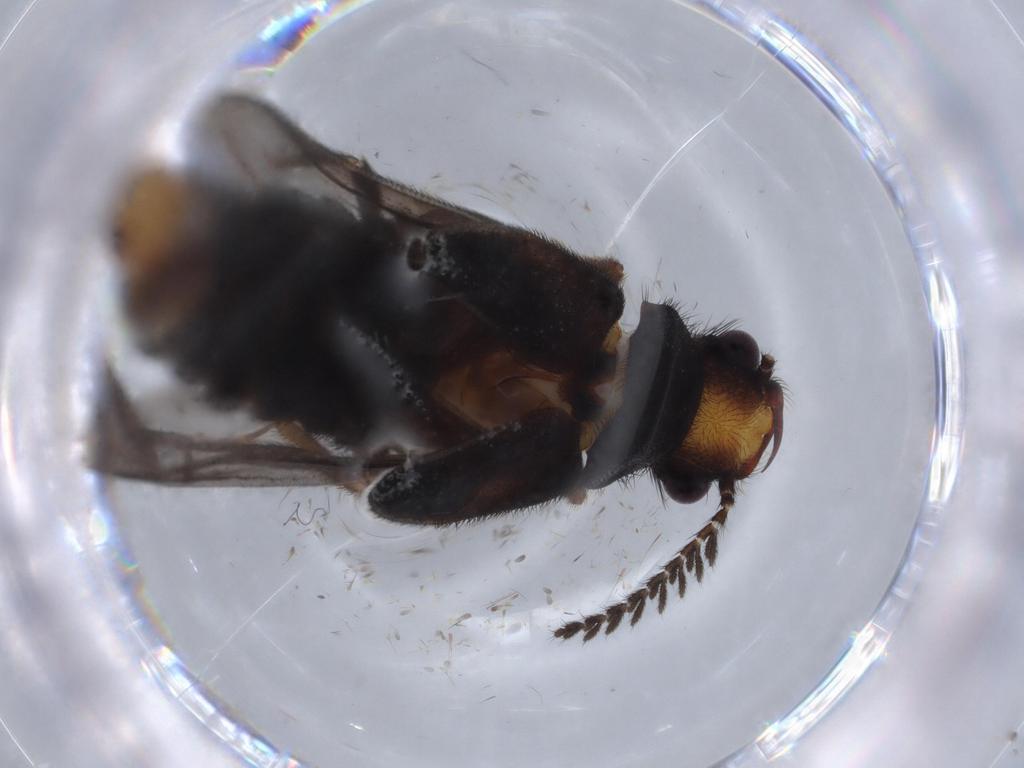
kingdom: Animalia
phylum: Arthropoda
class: Insecta
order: Coleoptera
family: Phengodidae
